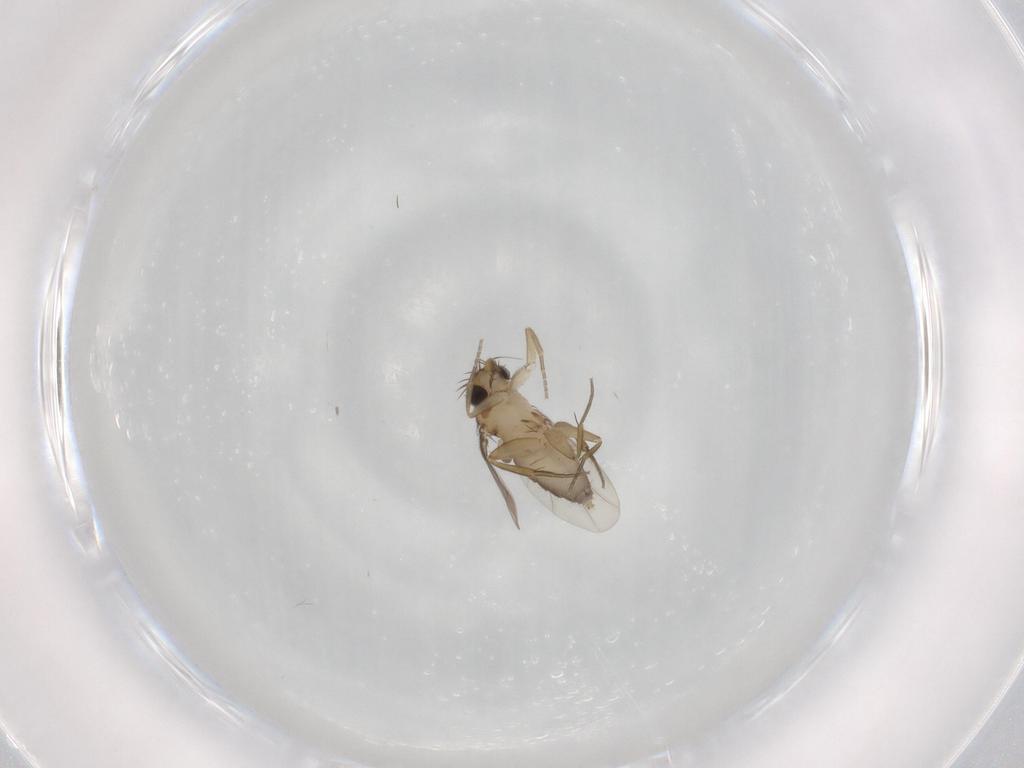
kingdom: Animalia
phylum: Arthropoda
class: Insecta
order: Diptera
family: Phoridae
